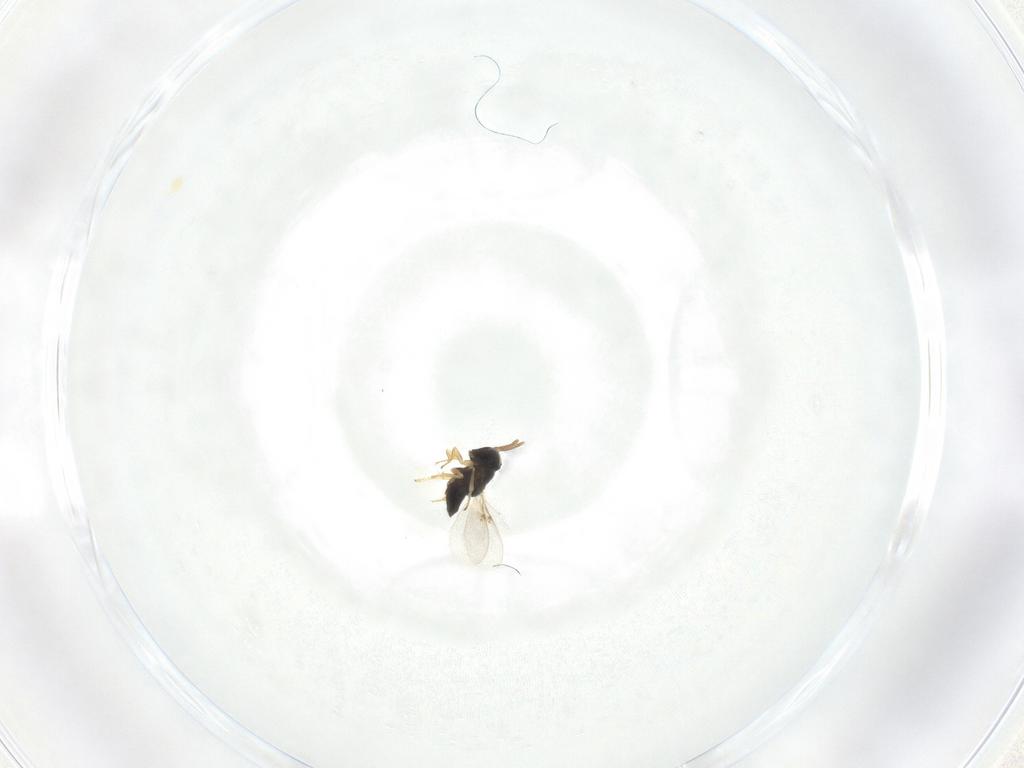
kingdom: Animalia
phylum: Arthropoda
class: Insecta
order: Hymenoptera
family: Encyrtidae
